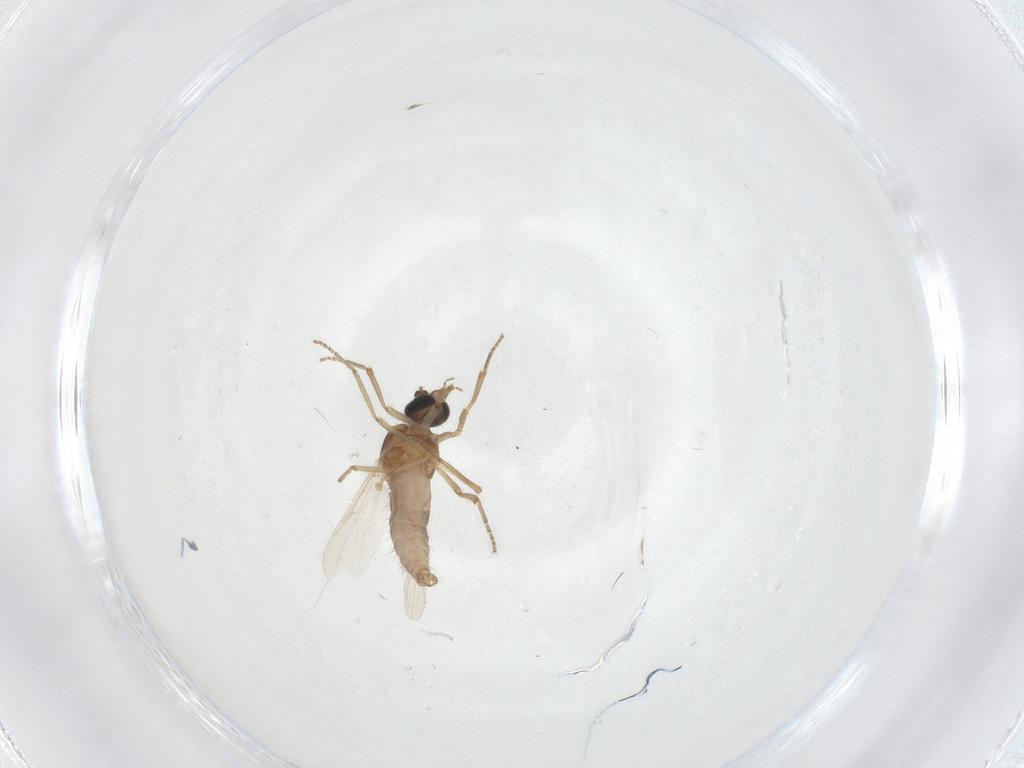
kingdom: Animalia
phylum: Arthropoda
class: Insecta
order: Diptera
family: Ceratopogonidae
